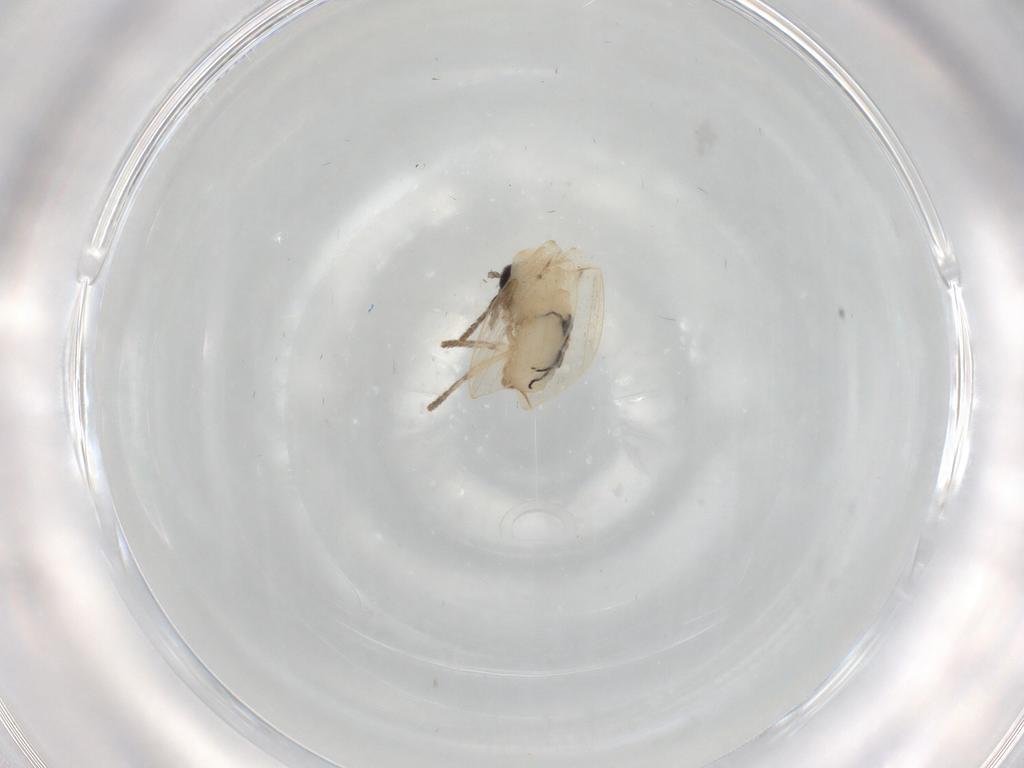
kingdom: Animalia
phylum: Arthropoda
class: Insecta
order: Diptera
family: Psychodidae
